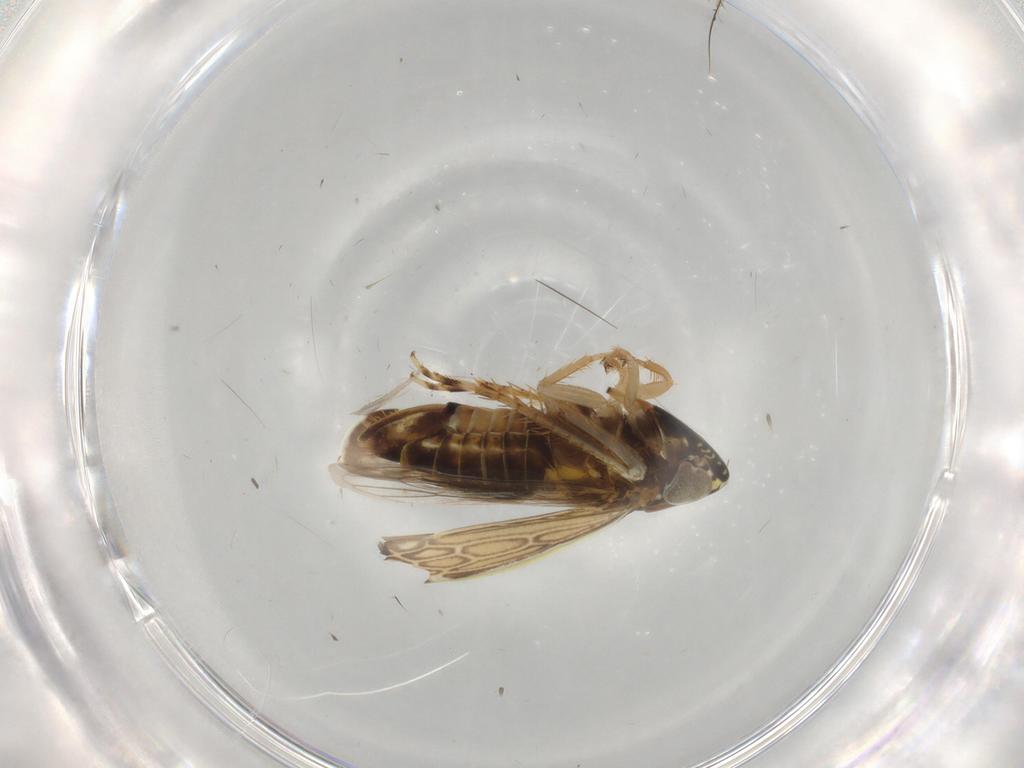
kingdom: Animalia
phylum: Arthropoda
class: Insecta
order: Hemiptera
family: Cicadellidae
